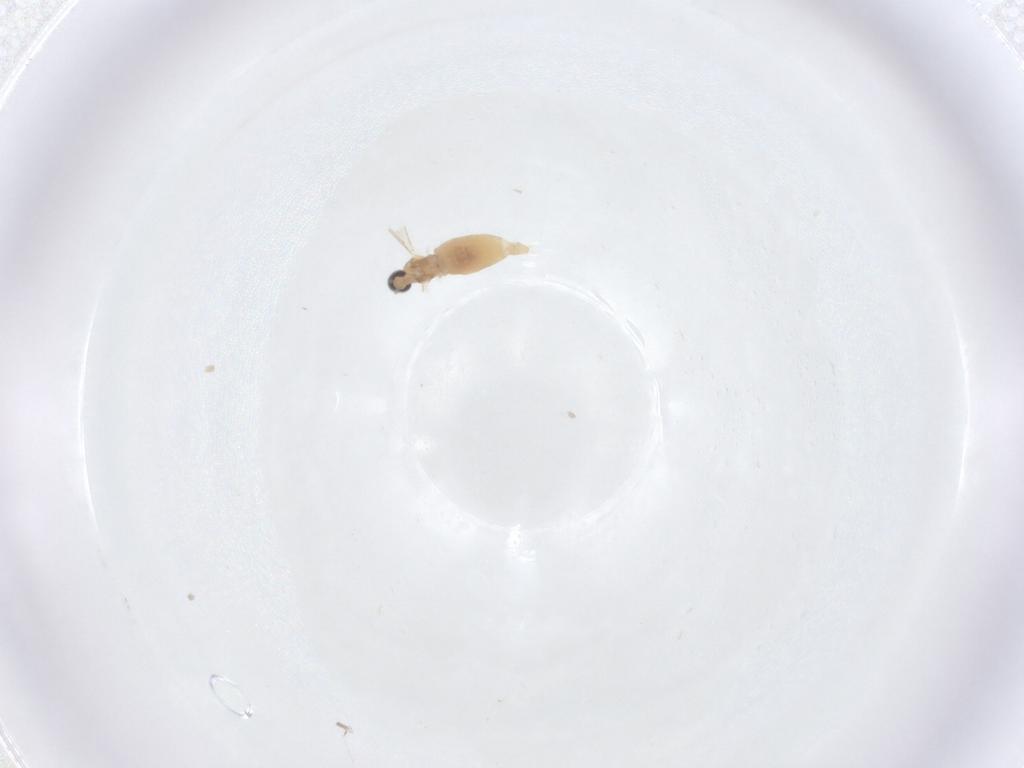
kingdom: Animalia
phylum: Arthropoda
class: Insecta
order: Diptera
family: Cecidomyiidae
